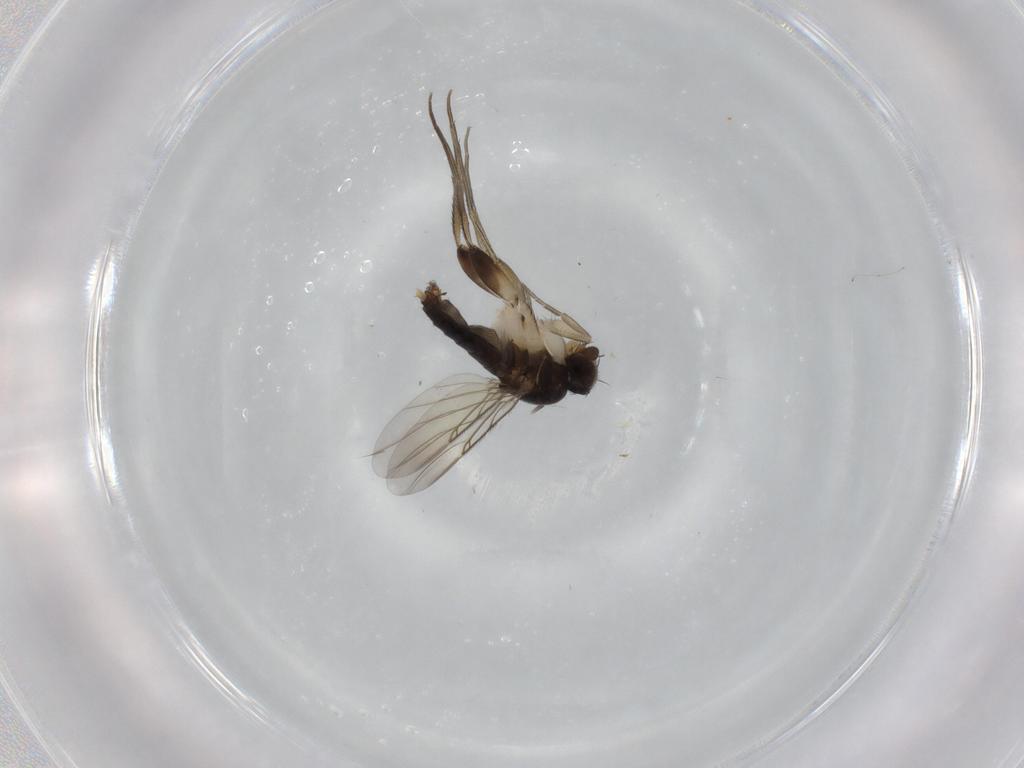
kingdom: Animalia
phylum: Arthropoda
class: Insecta
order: Diptera
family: Phoridae
